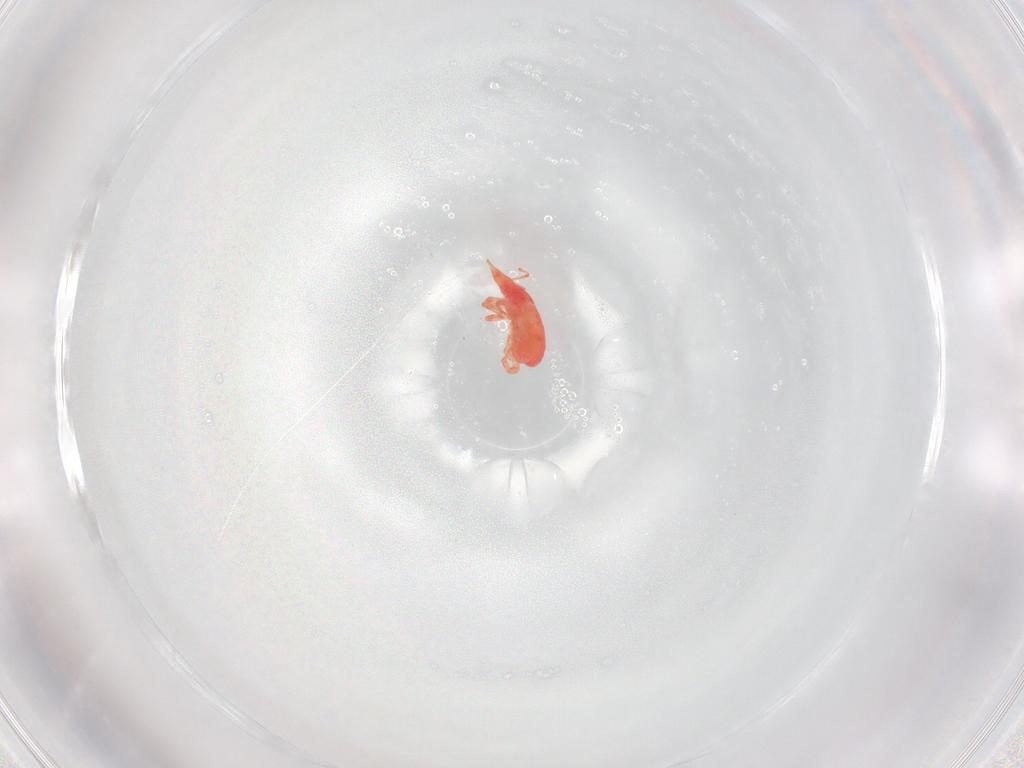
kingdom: Animalia
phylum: Arthropoda
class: Arachnida
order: Trombidiformes
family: Bdellidae
